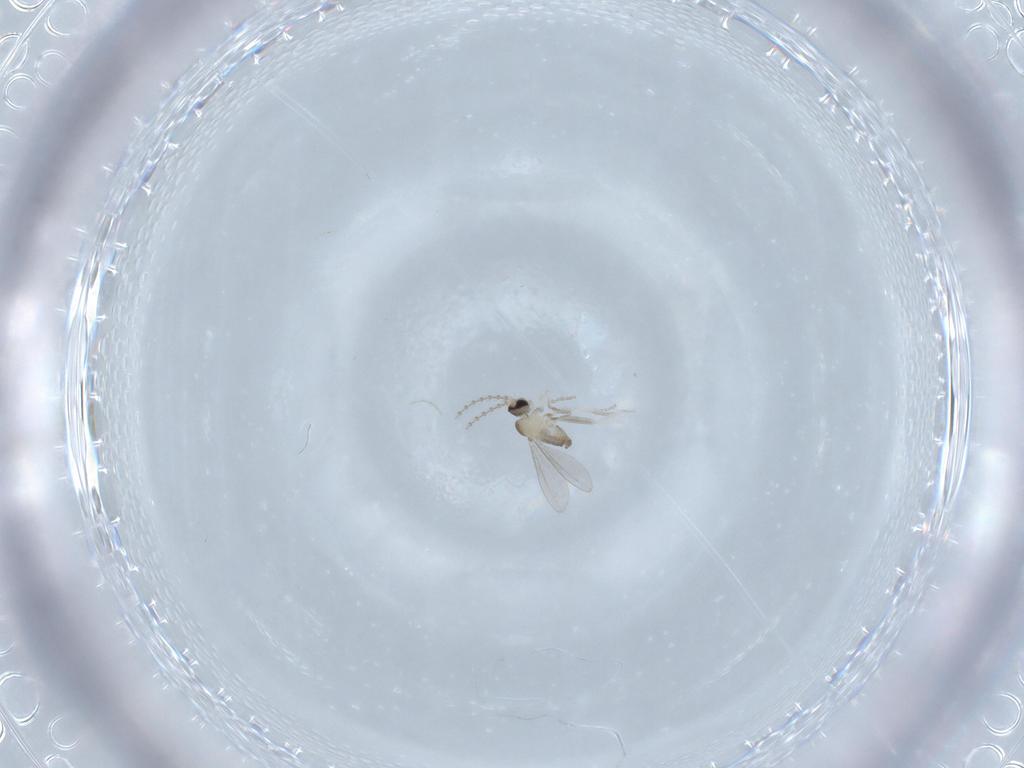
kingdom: Animalia
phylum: Arthropoda
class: Insecta
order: Diptera
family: Cecidomyiidae
